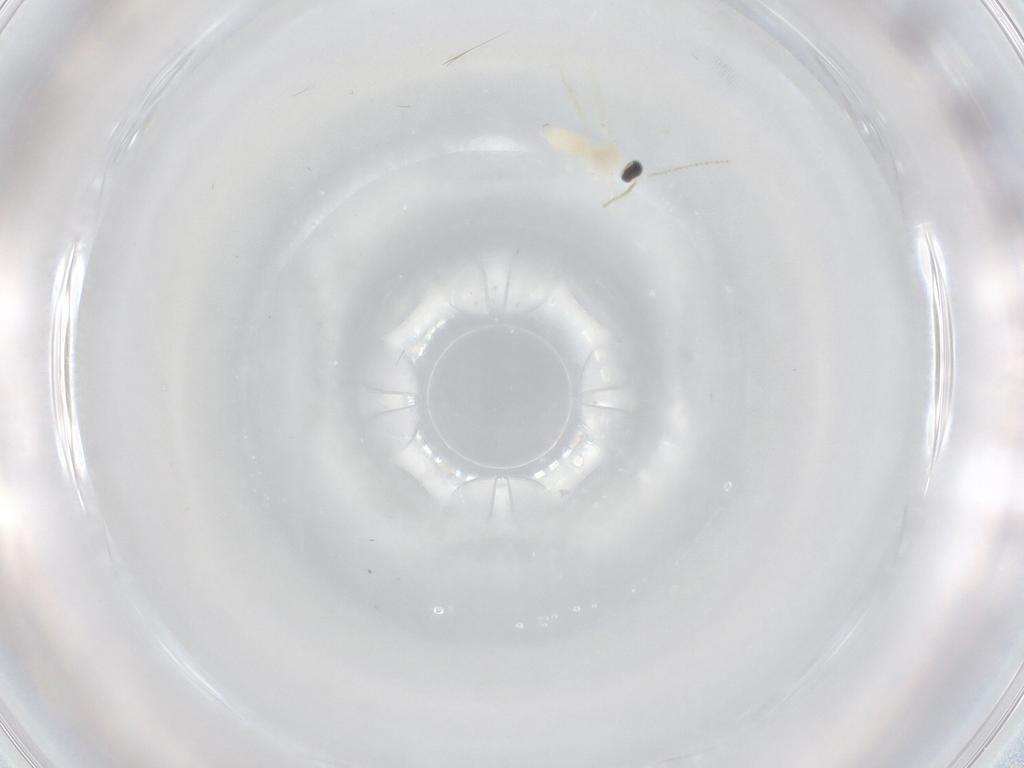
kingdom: Animalia
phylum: Arthropoda
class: Insecta
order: Diptera
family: Cecidomyiidae
